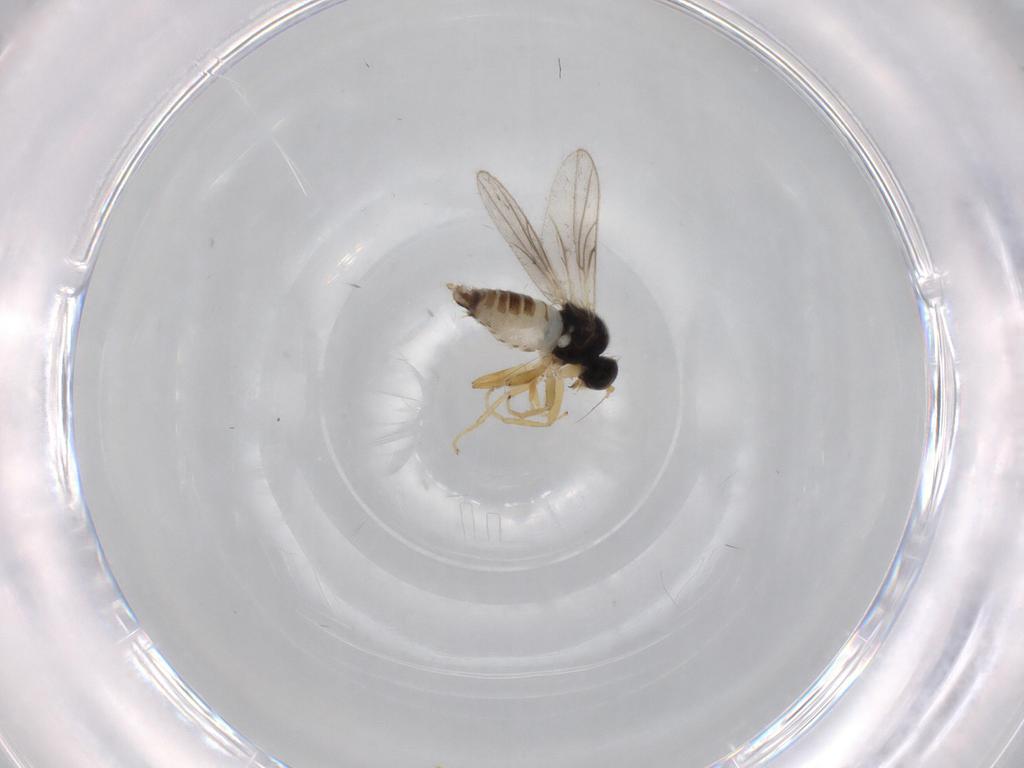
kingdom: Animalia
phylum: Arthropoda
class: Insecta
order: Diptera
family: Hybotidae
